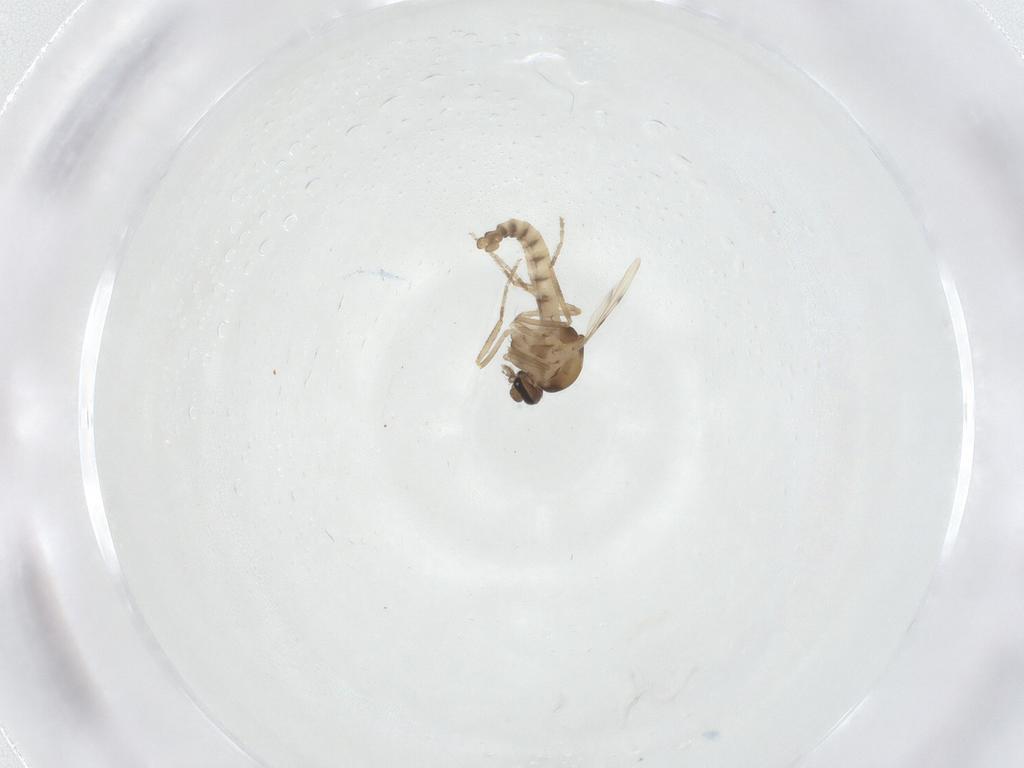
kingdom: Animalia
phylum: Arthropoda
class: Insecta
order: Diptera
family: Ceratopogonidae
